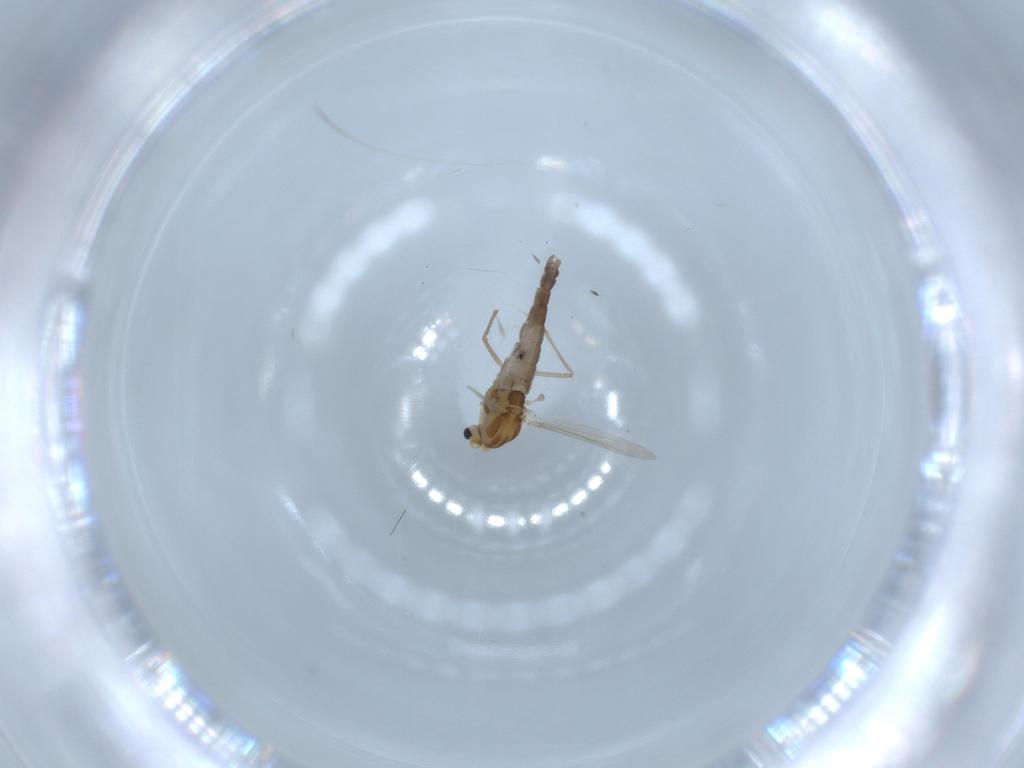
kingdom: Animalia
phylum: Arthropoda
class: Insecta
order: Diptera
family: Chironomidae
